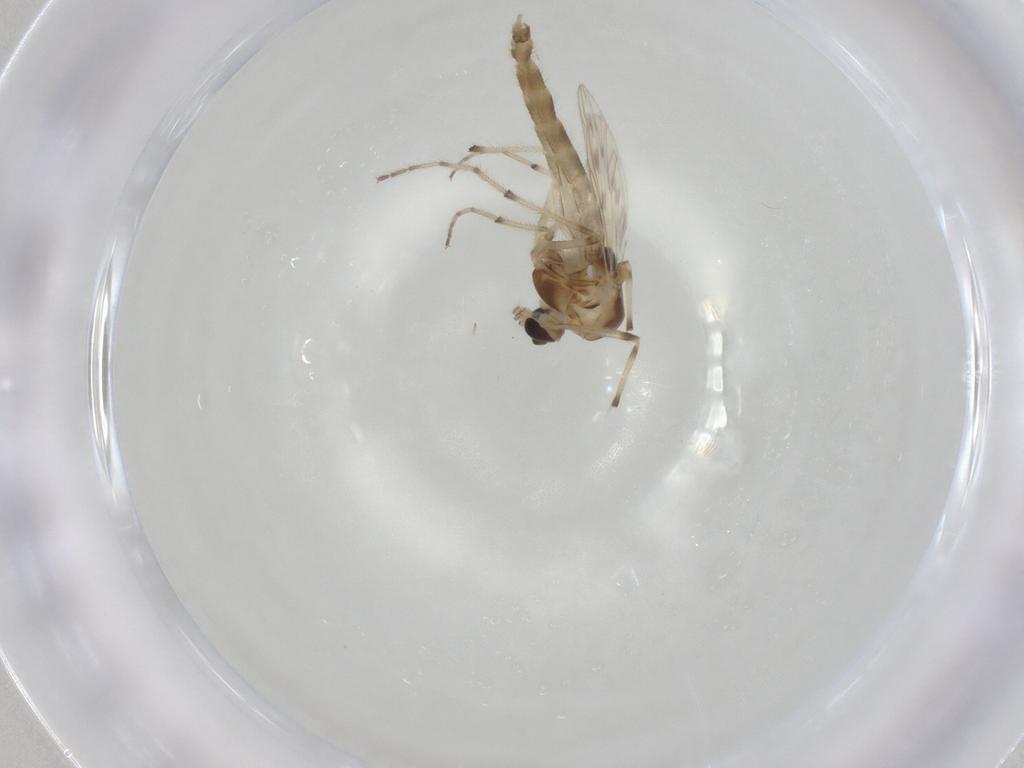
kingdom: Animalia
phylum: Arthropoda
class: Insecta
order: Diptera
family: Chironomidae
